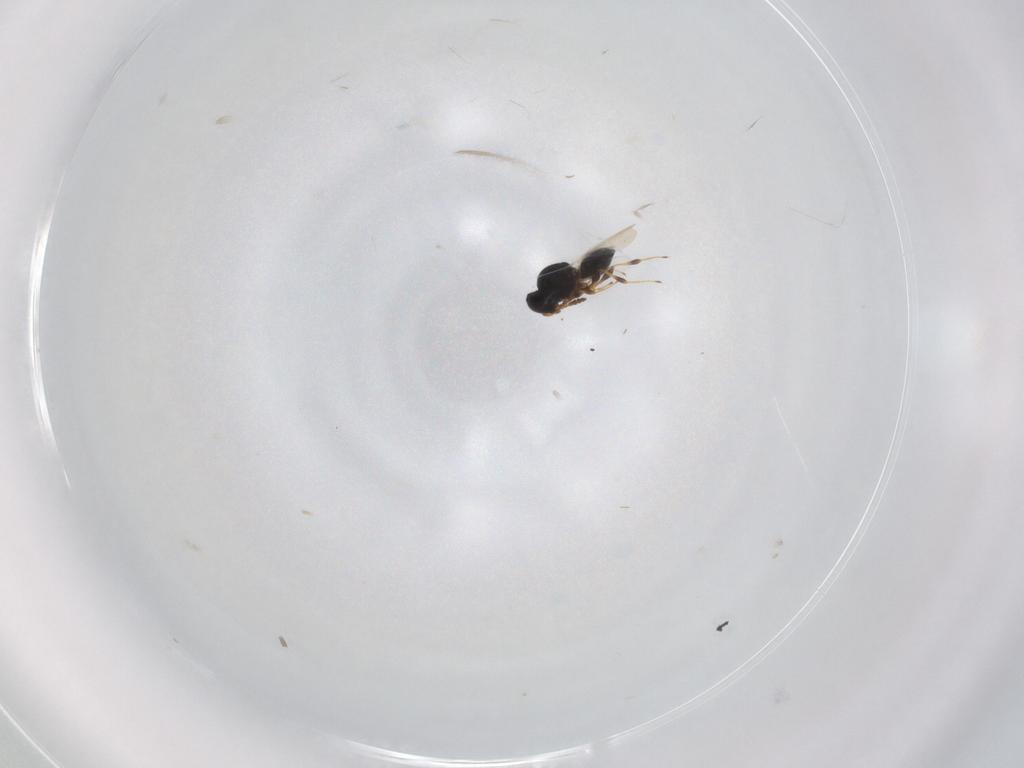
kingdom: Animalia
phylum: Arthropoda
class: Insecta
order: Hymenoptera
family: Platygastridae
